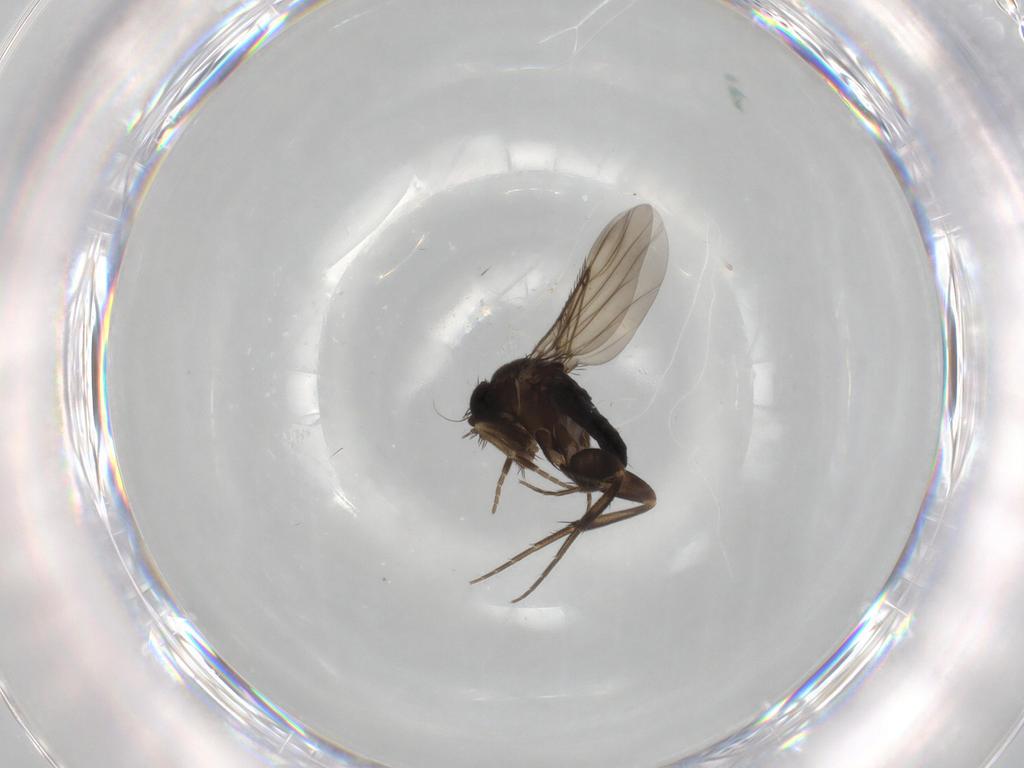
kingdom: Animalia
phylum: Arthropoda
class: Insecta
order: Diptera
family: Phoridae
